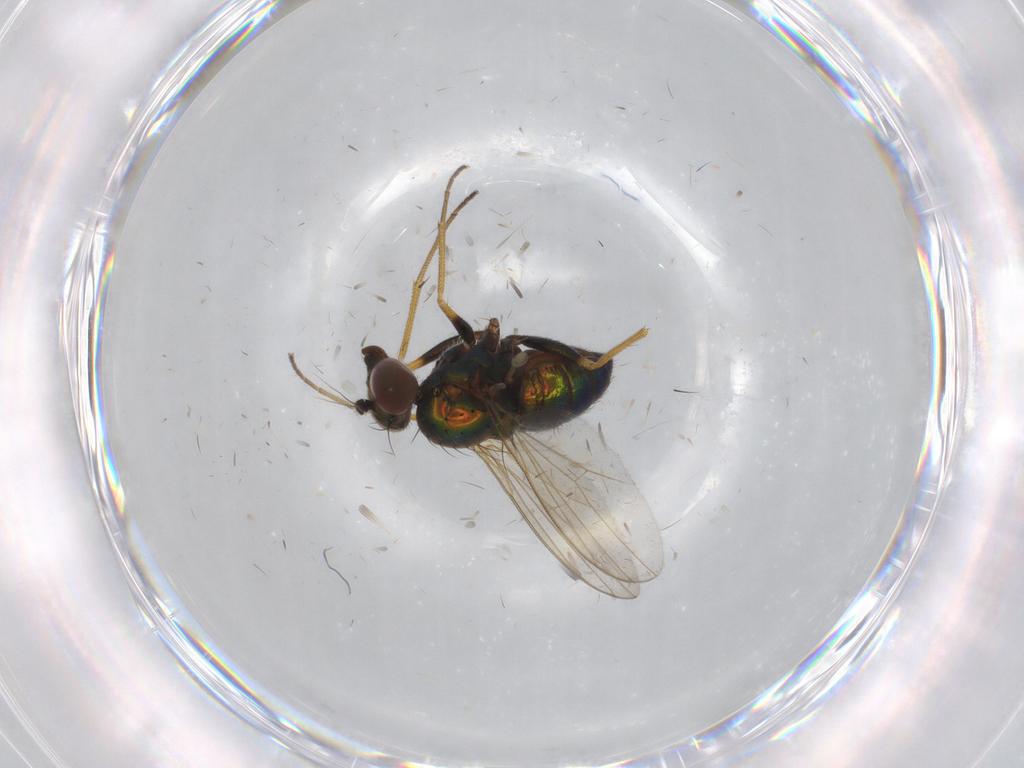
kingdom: Animalia
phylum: Arthropoda
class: Insecta
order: Diptera
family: Dolichopodidae
